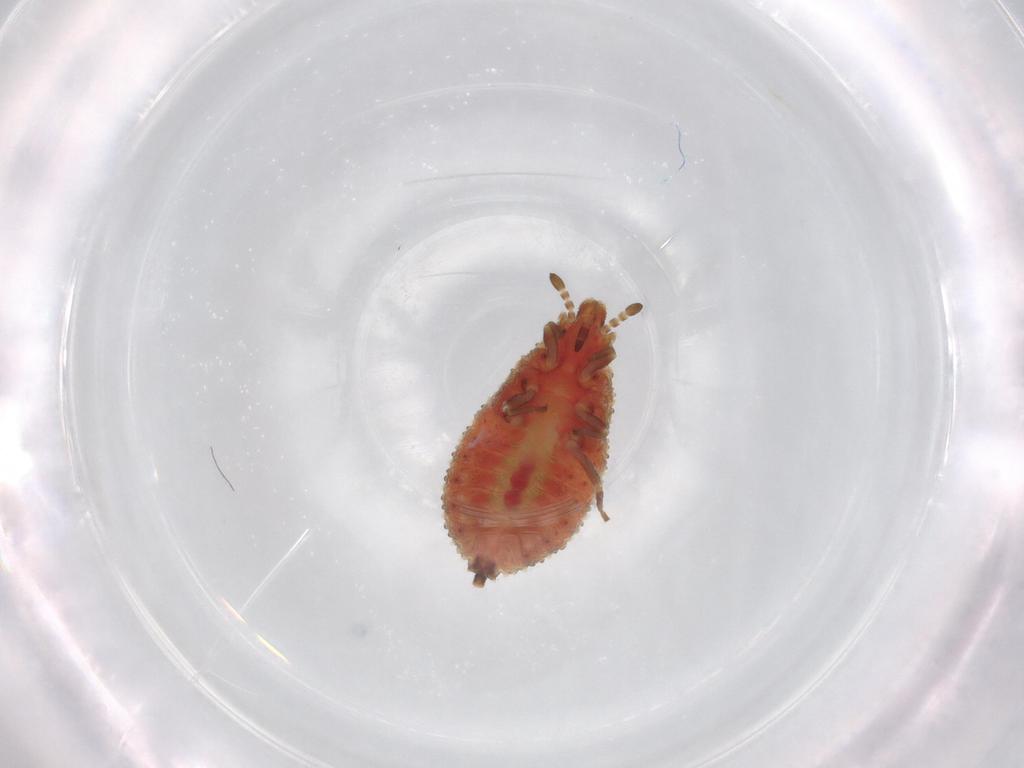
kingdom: Animalia
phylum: Arthropoda
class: Insecta
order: Hemiptera
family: Aradidae
